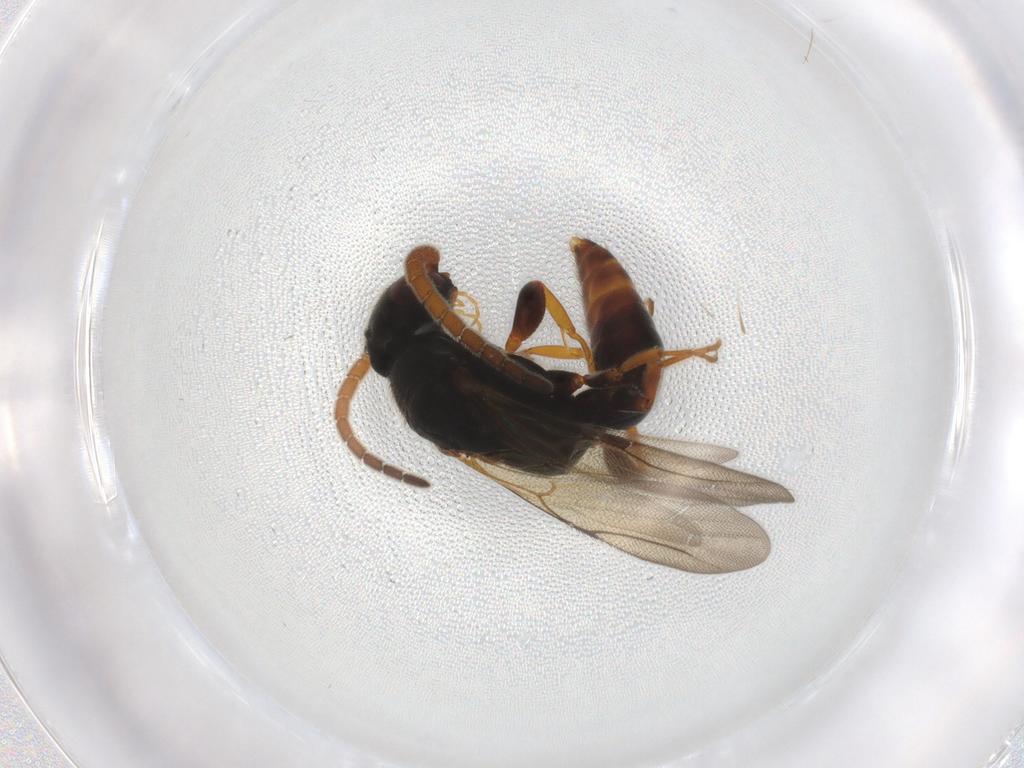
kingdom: Animalia
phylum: Arthropoda
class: Insecta
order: Hymenoptera
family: Bethylidae
